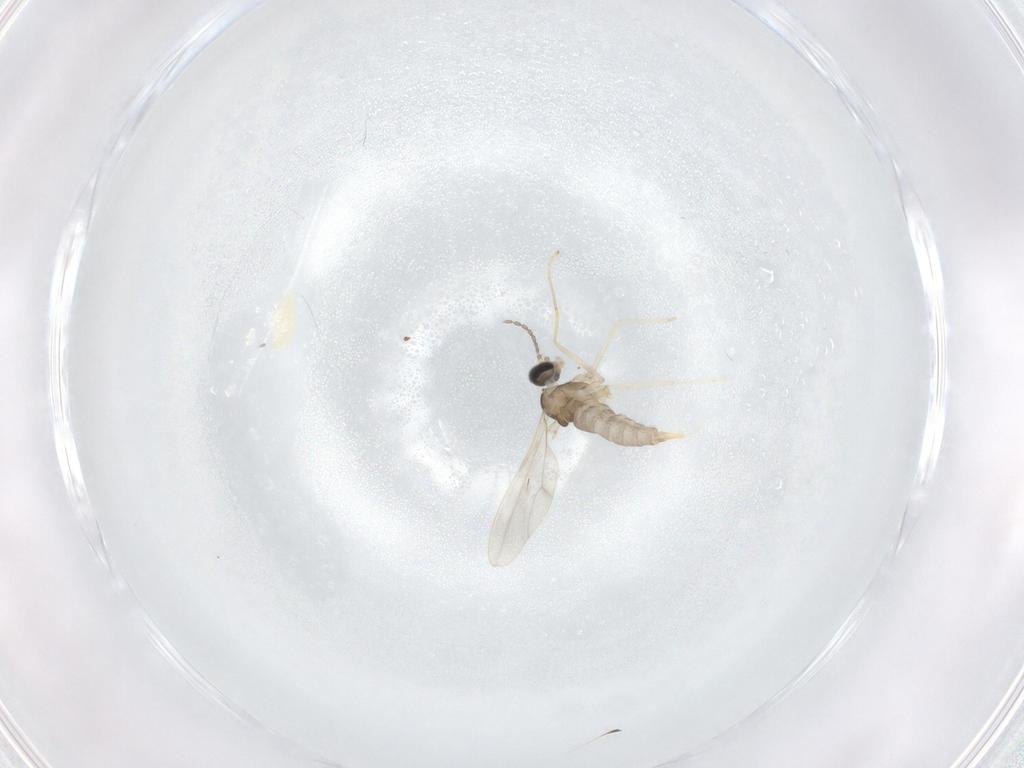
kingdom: Animalia
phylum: Arthropoda
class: Insecta
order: Diptera
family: Cecidomyiidae
